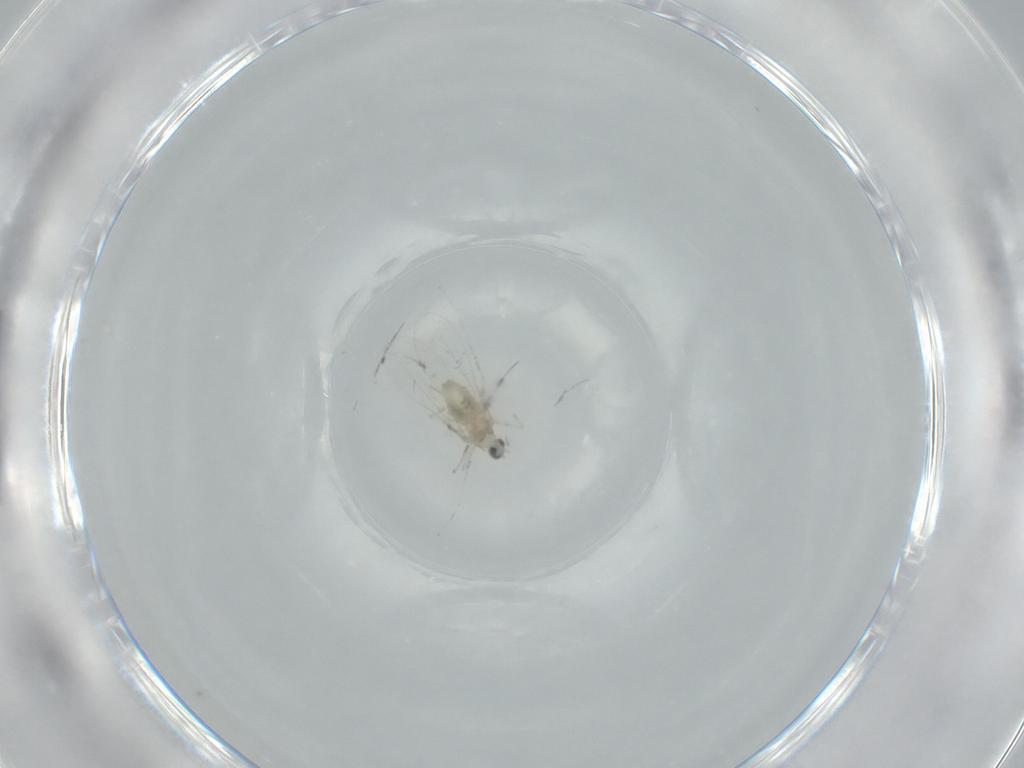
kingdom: Animalia
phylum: Arthropoda
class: Insecta
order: Diptera
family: Cecidomyiidae
